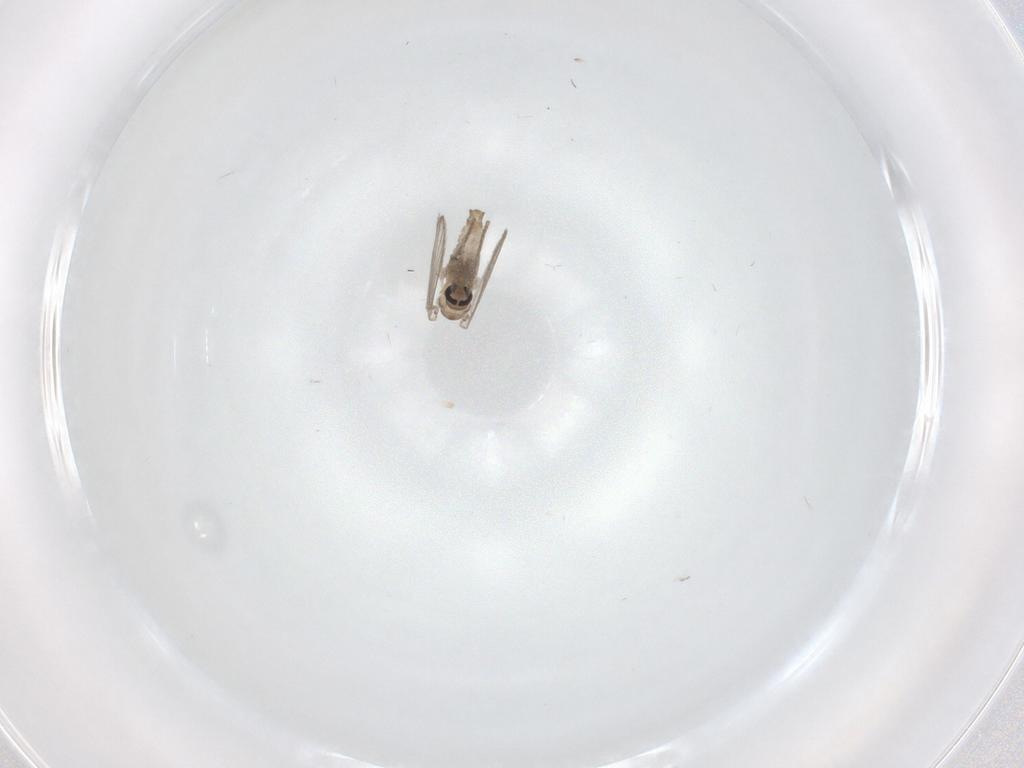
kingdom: Animalia
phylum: Arthropoda
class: Insecta
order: Diptera
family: Psychodidae
